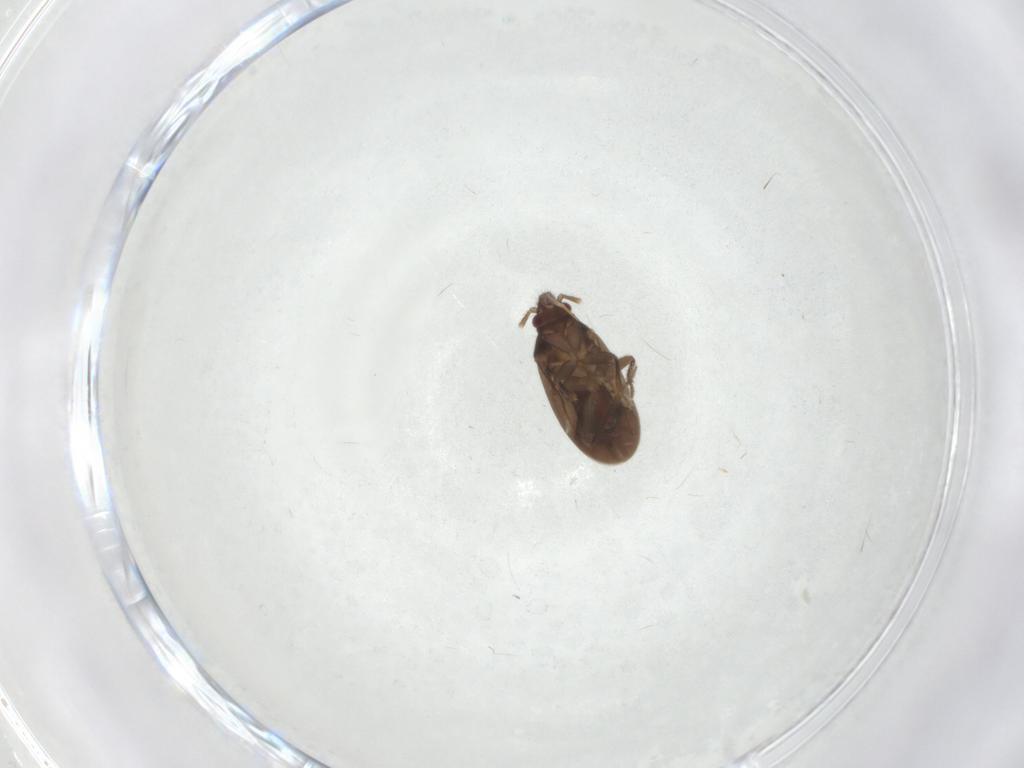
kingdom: Animalia
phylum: Arthropoda
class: Insecta
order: Hemiptera
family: Ceratocombidae
